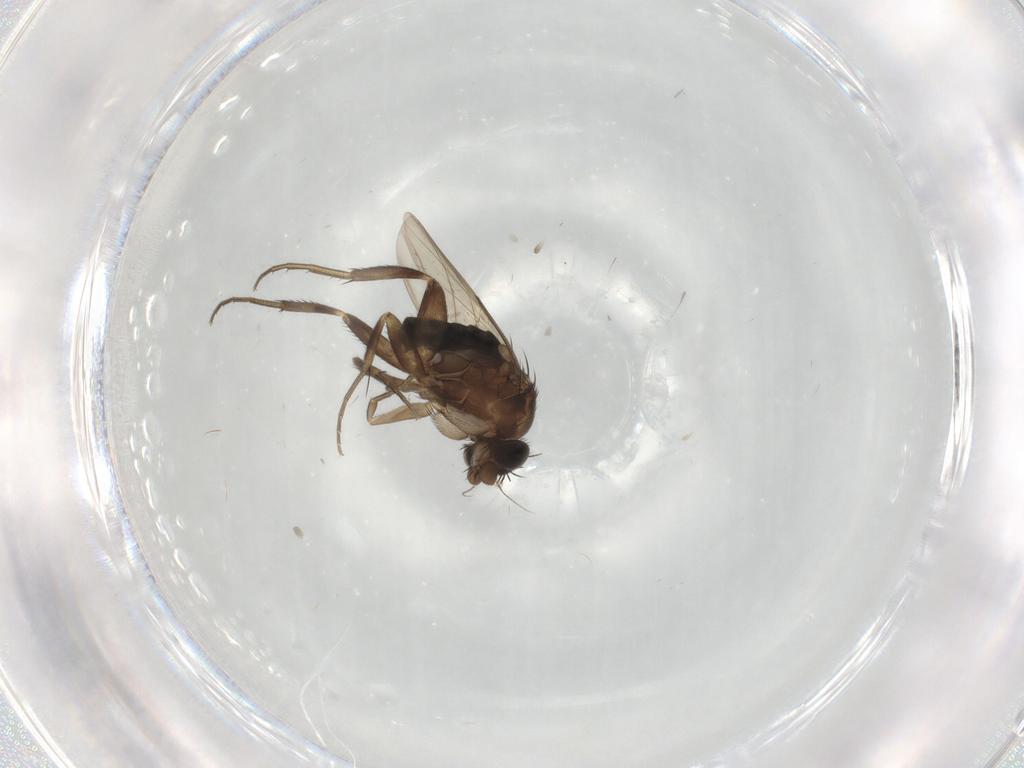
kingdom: Animalia
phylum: Arthropoda
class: Insecta
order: Diptera
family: Phoridae
